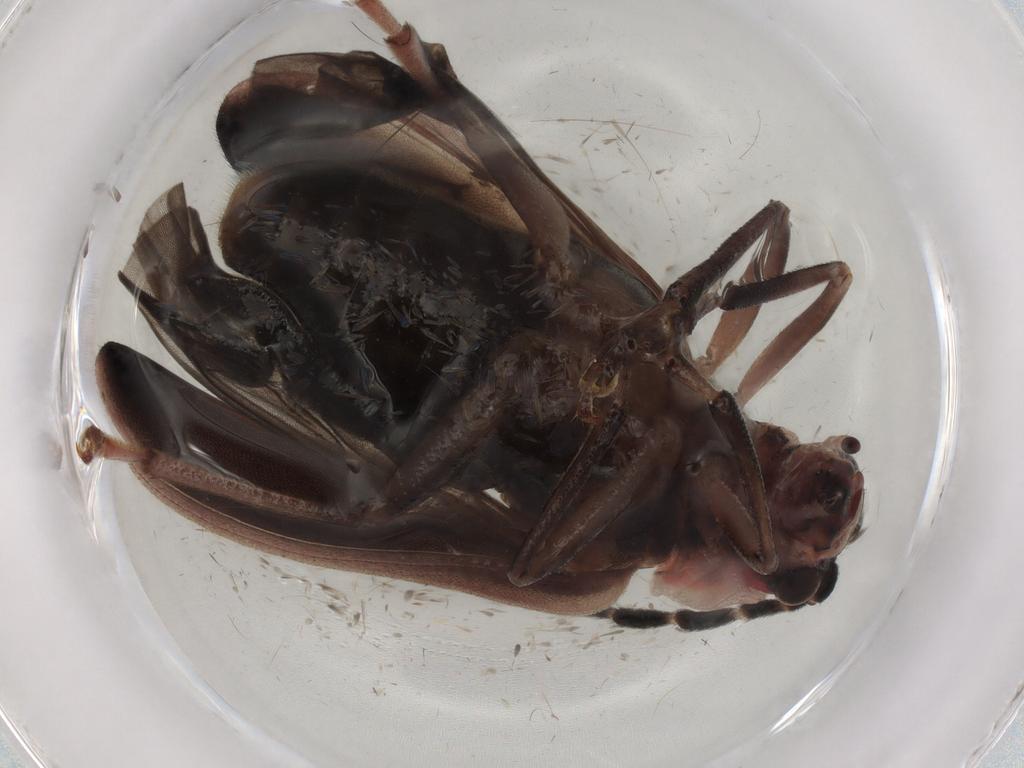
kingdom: Animalia
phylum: Arthropoda
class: Insecta
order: Coleoptera
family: Chrysomelidae
